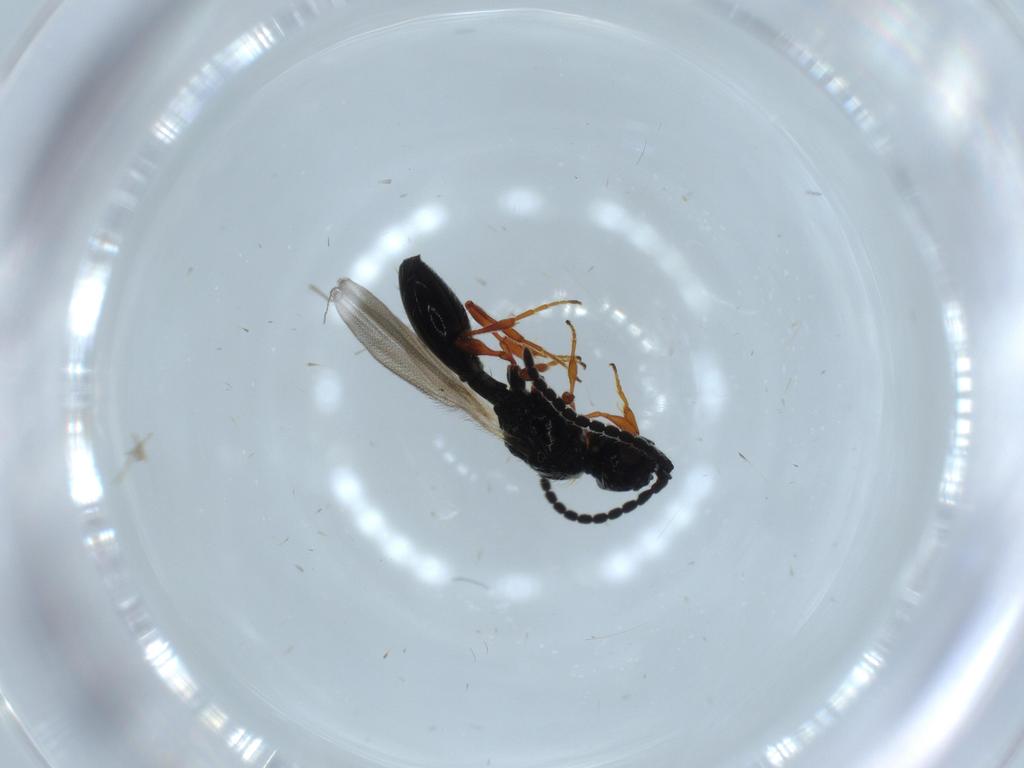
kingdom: Animalia
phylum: Arthropoda
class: Insecta
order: Hymenoptera
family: Diapriidae
